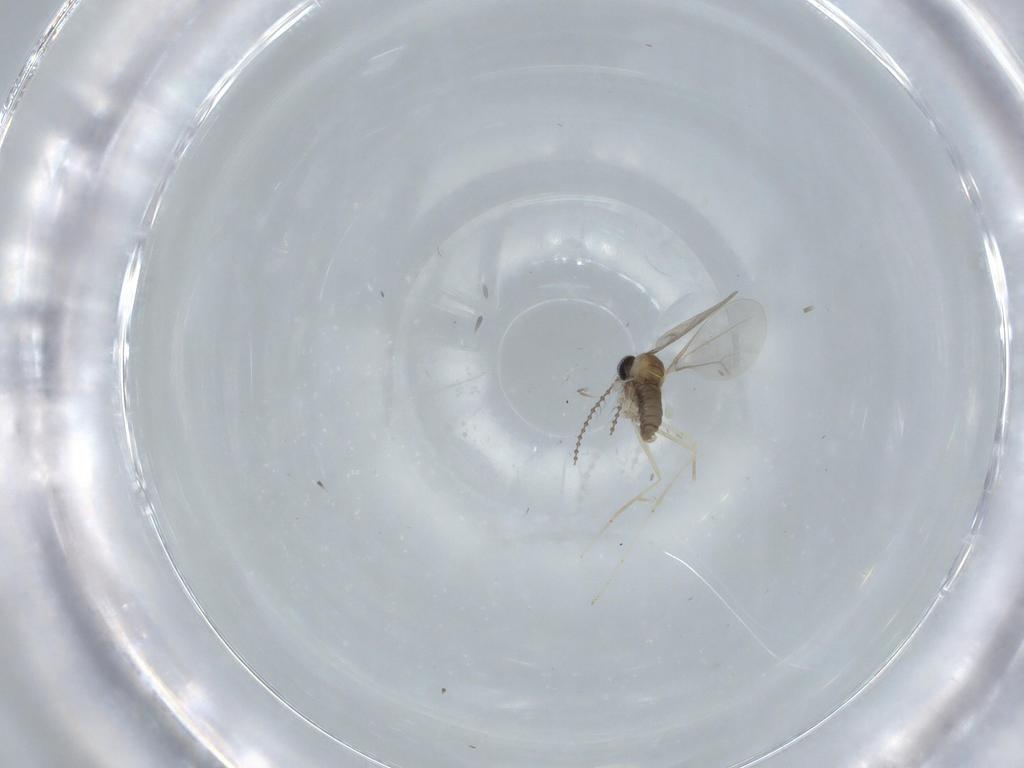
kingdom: Animalia
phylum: Arthropoda
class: Insecta
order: Diptera
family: Cecidomyiidae
